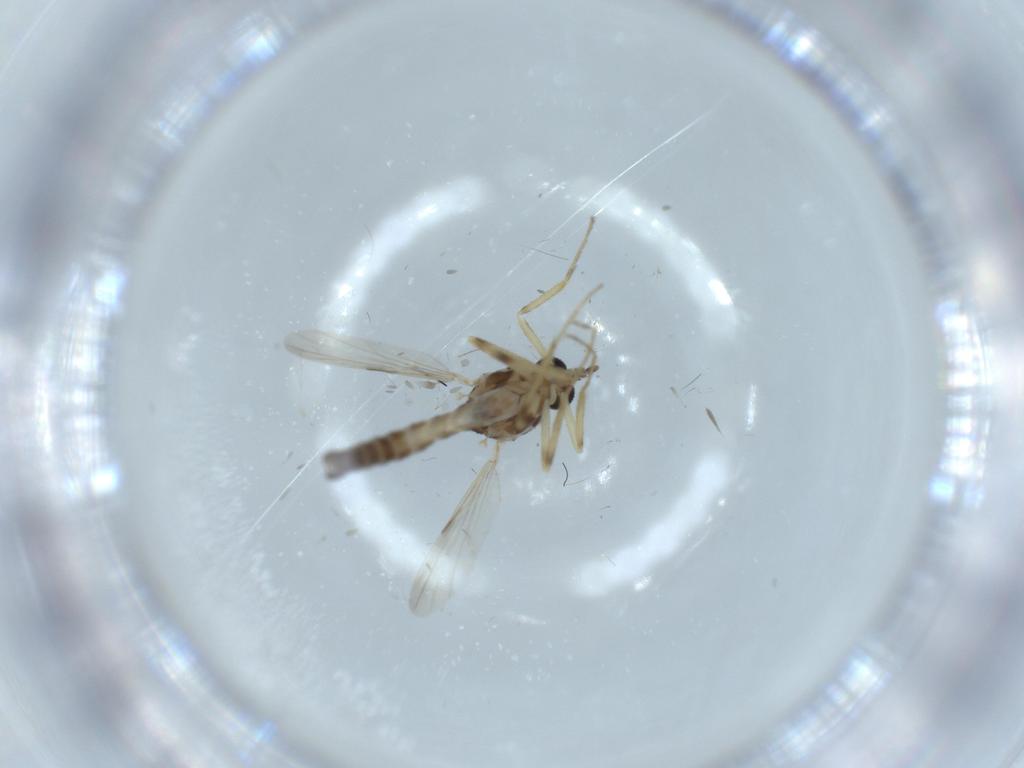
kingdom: Animalia
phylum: Arthropoda
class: Insecta
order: Diptera
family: Ceratopogonidae
